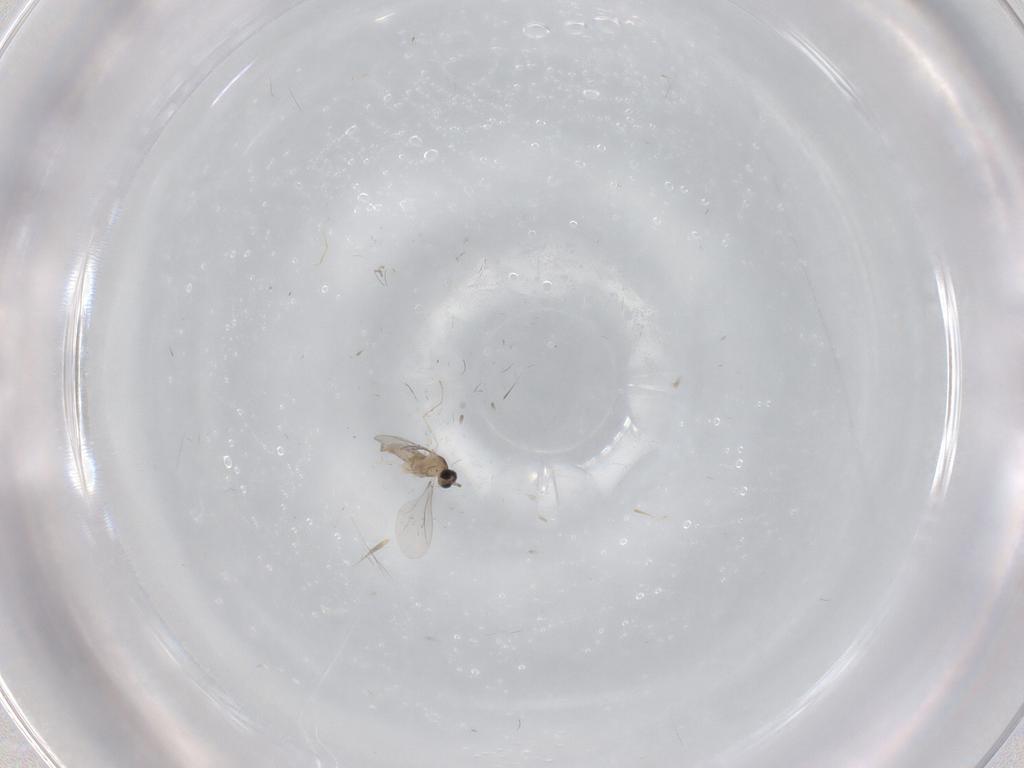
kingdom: Animalia
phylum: Arthropoda
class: Insecta
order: Diptera
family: Cecidomyiidae
